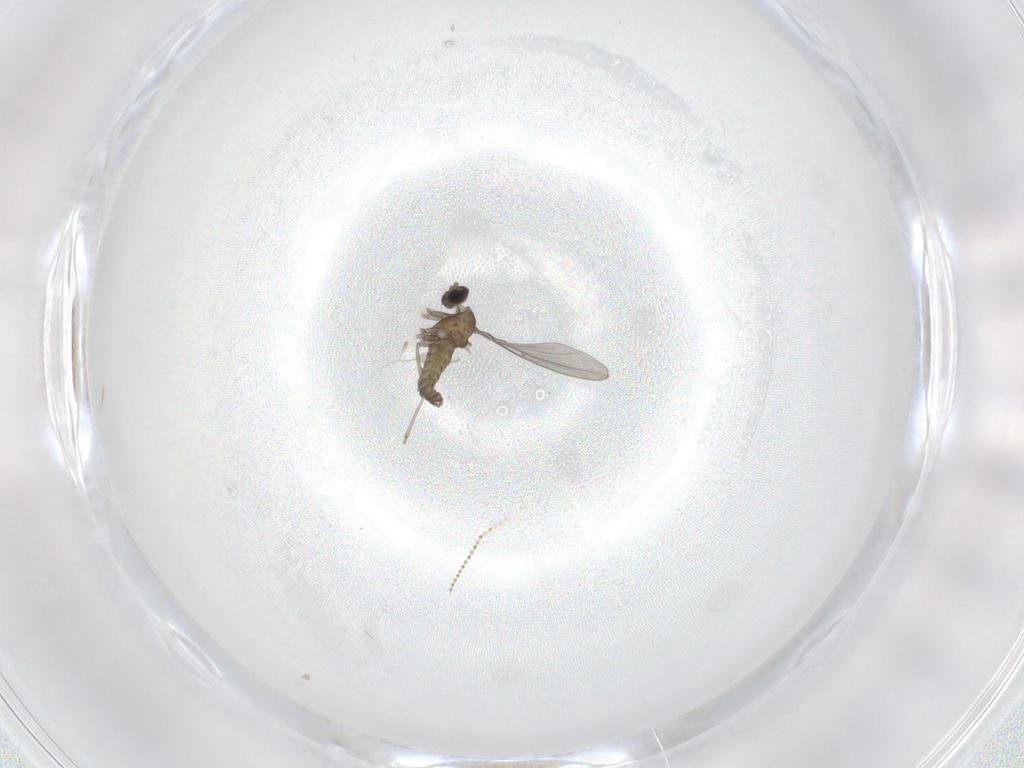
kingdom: Animalia
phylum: Arthropoda
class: Insecta
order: Diptera
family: Cecidomyiidae
